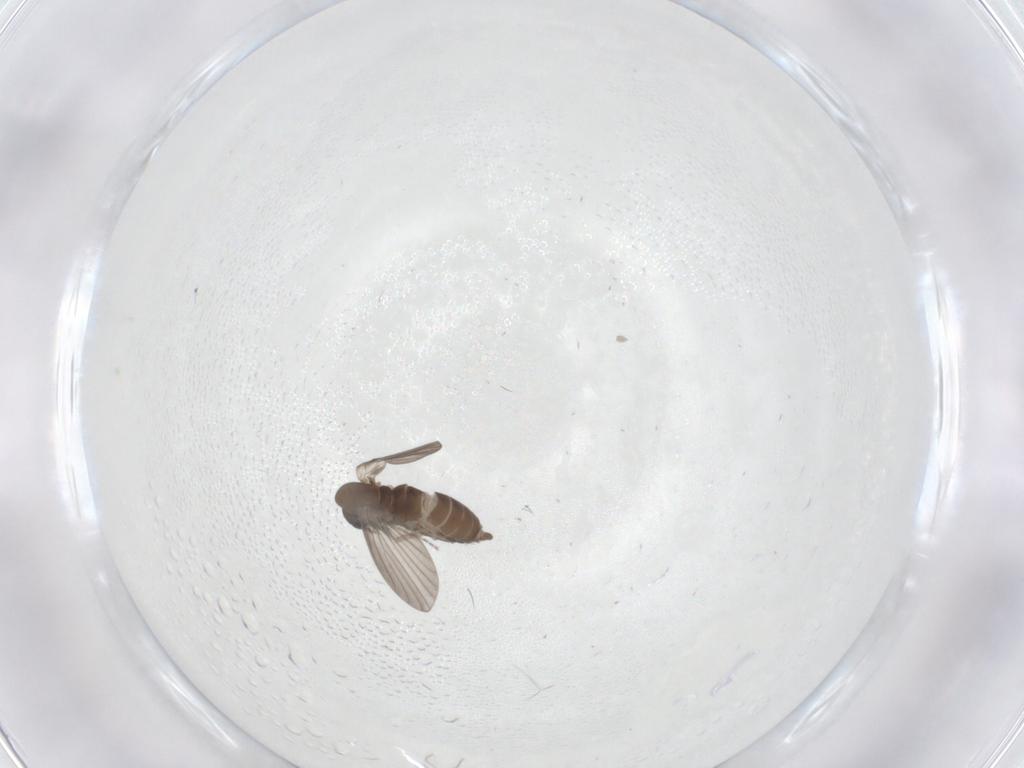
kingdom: Animalia
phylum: Arthropoda
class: Insecta
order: Diptera
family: Chironomidae
